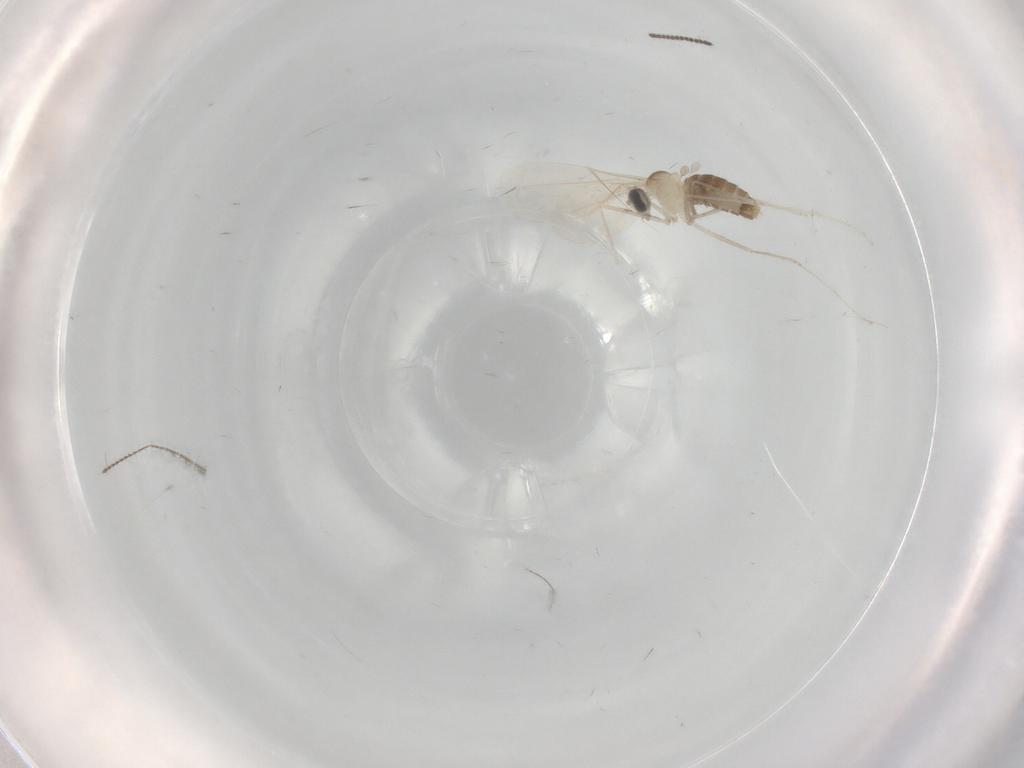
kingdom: Animalia
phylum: Arthropoda
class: Insecta
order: Diptera
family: Cecidomyiidae
